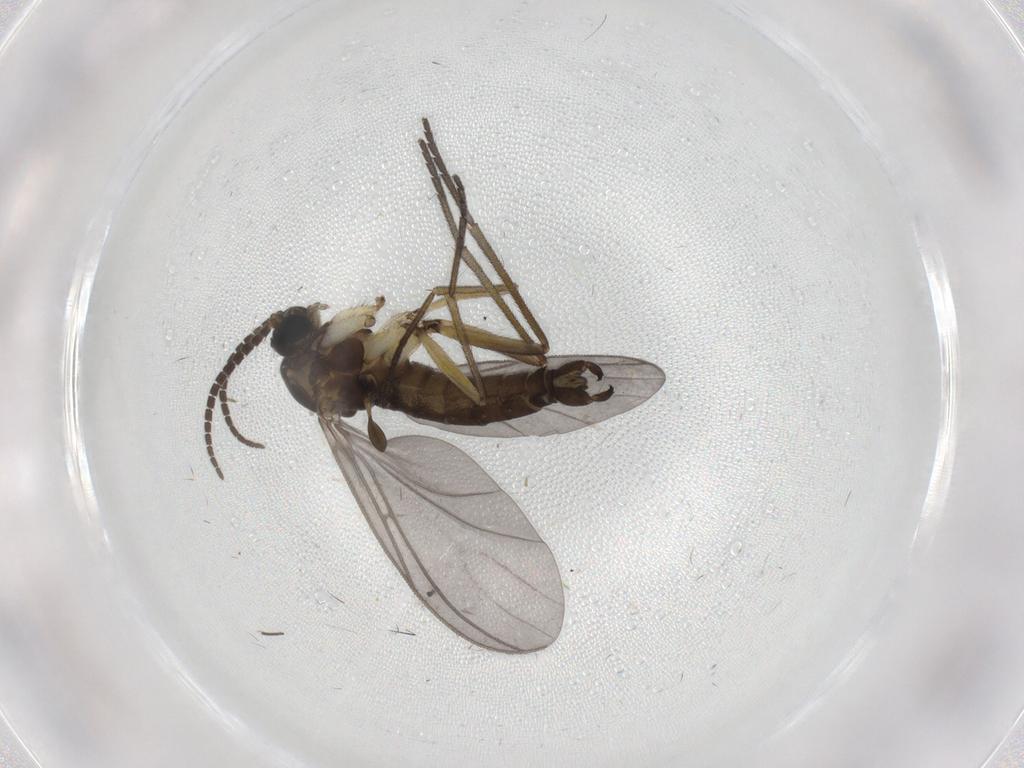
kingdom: Animalia
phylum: Arthropoda
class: Insecta
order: Diptera
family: Sciaridae
